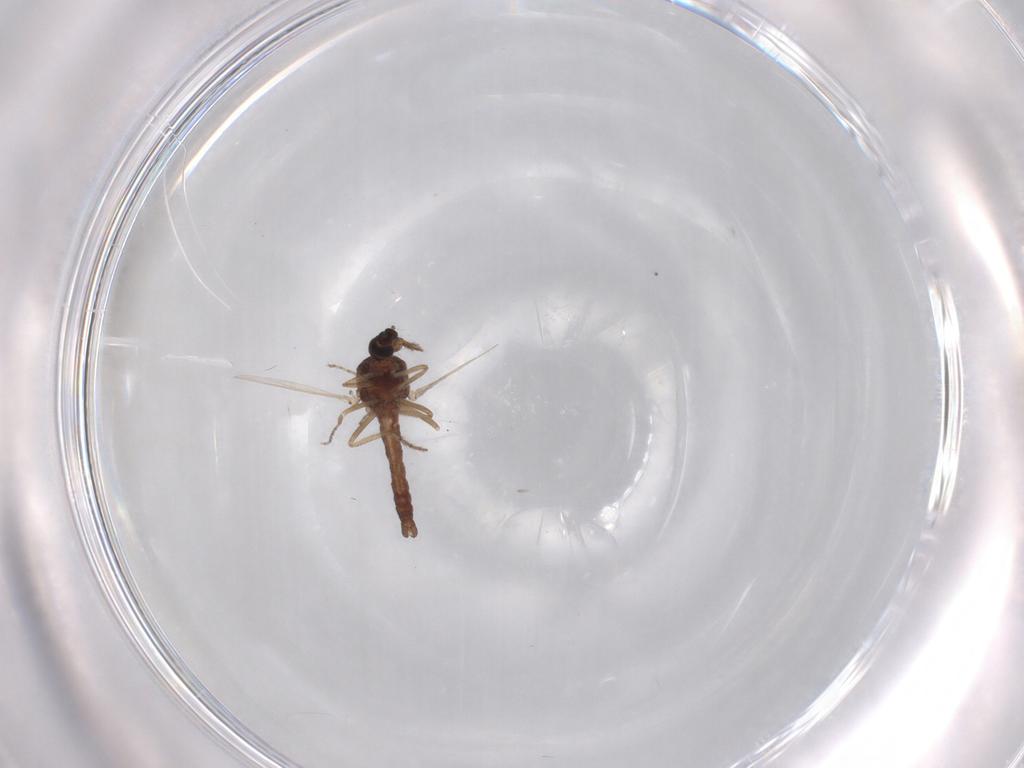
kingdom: Animalia
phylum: Arthropoda
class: Insecta
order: Diptera
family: Ceratopogonidae
